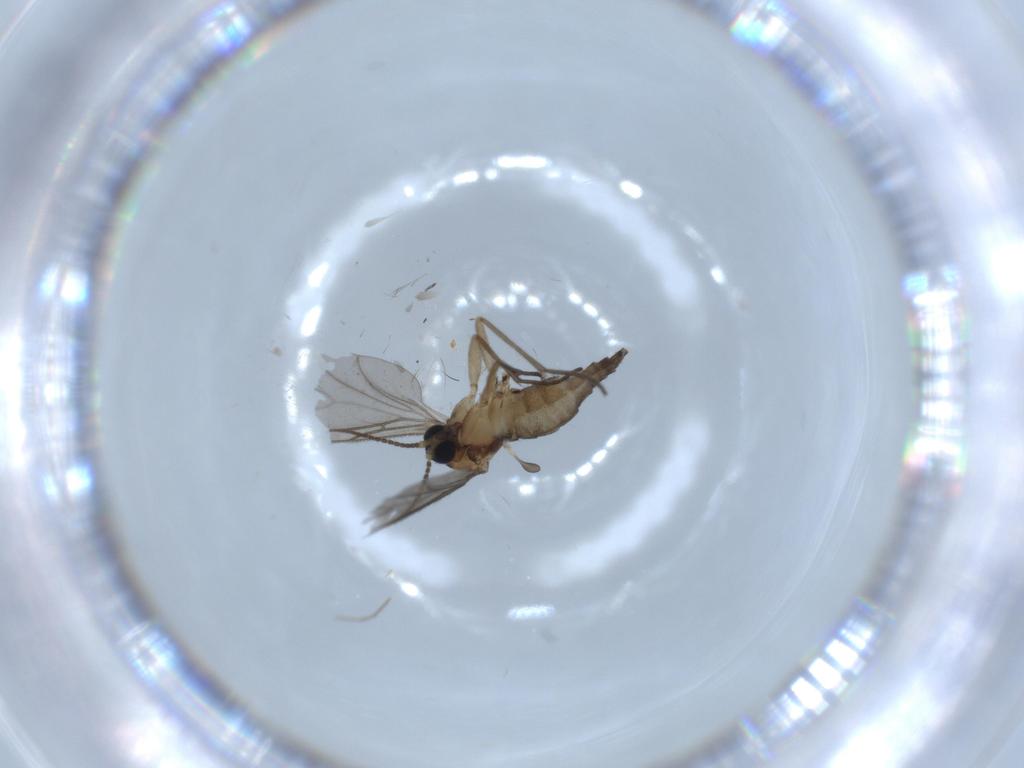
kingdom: Animalia
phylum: Arthropoda
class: Insecta
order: Diptera
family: Sciaridae
